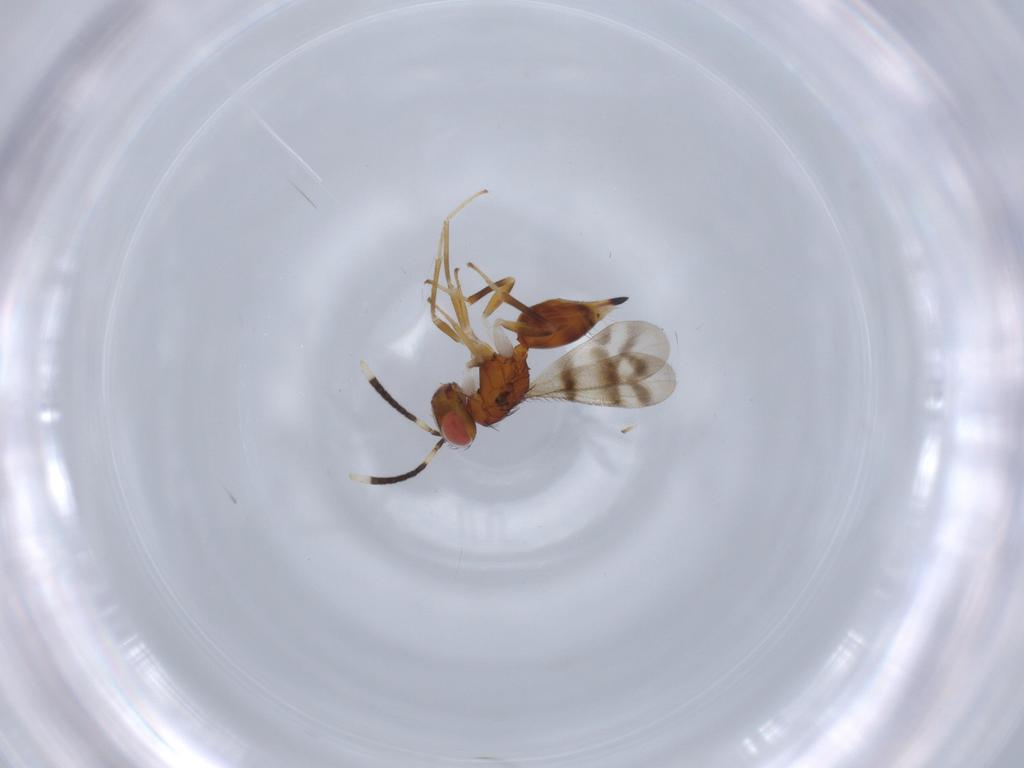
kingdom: Animalia
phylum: Arthropoda
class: Insecta
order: Hymenoptera
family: Diparidae
